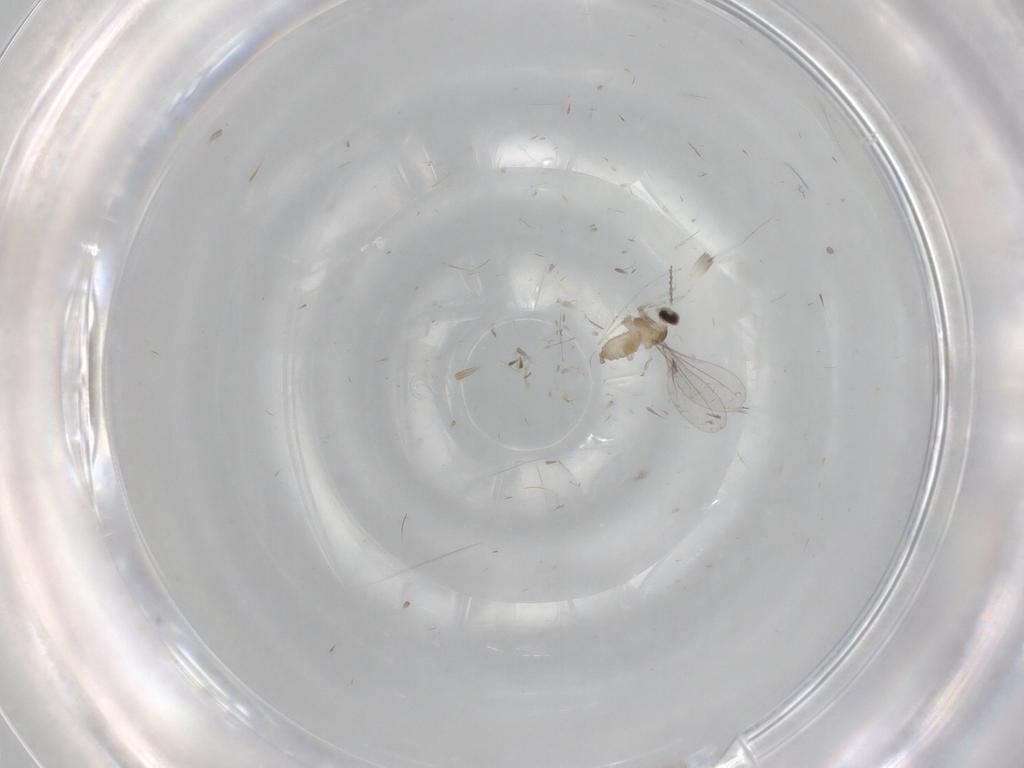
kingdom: Animalia
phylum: Arthropoda
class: Insecta
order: Diptera
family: Cecidomyiidae
